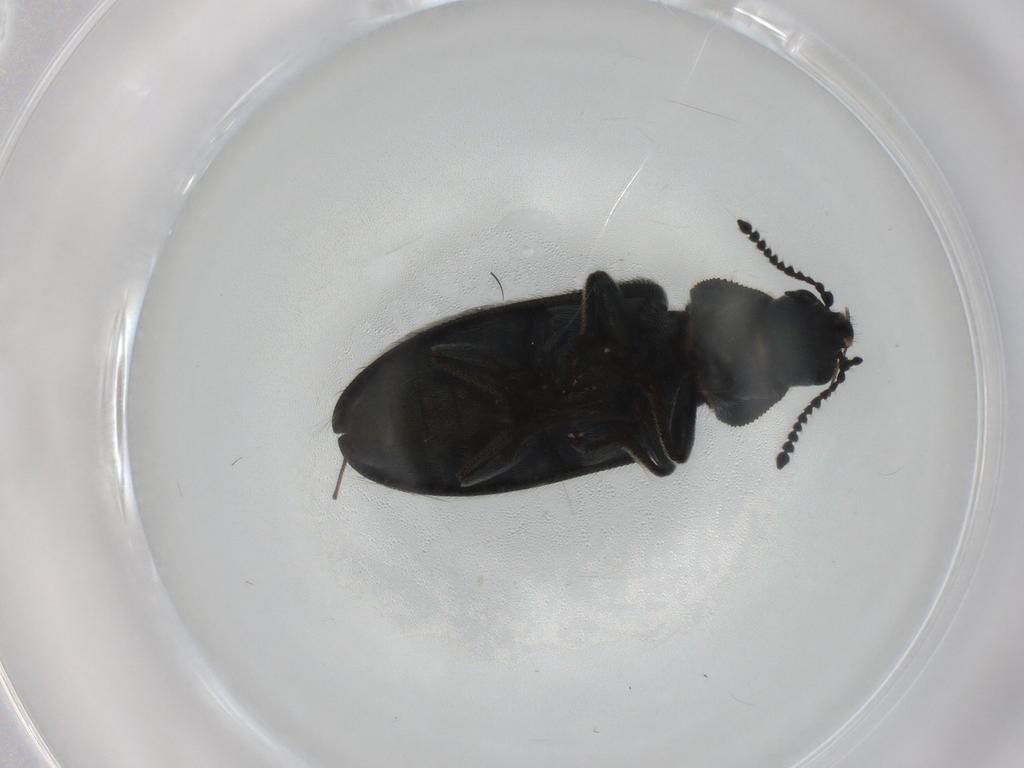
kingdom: Animalia
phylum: Arthropoda
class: Insecta
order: Coleoptera
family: Melyridae
